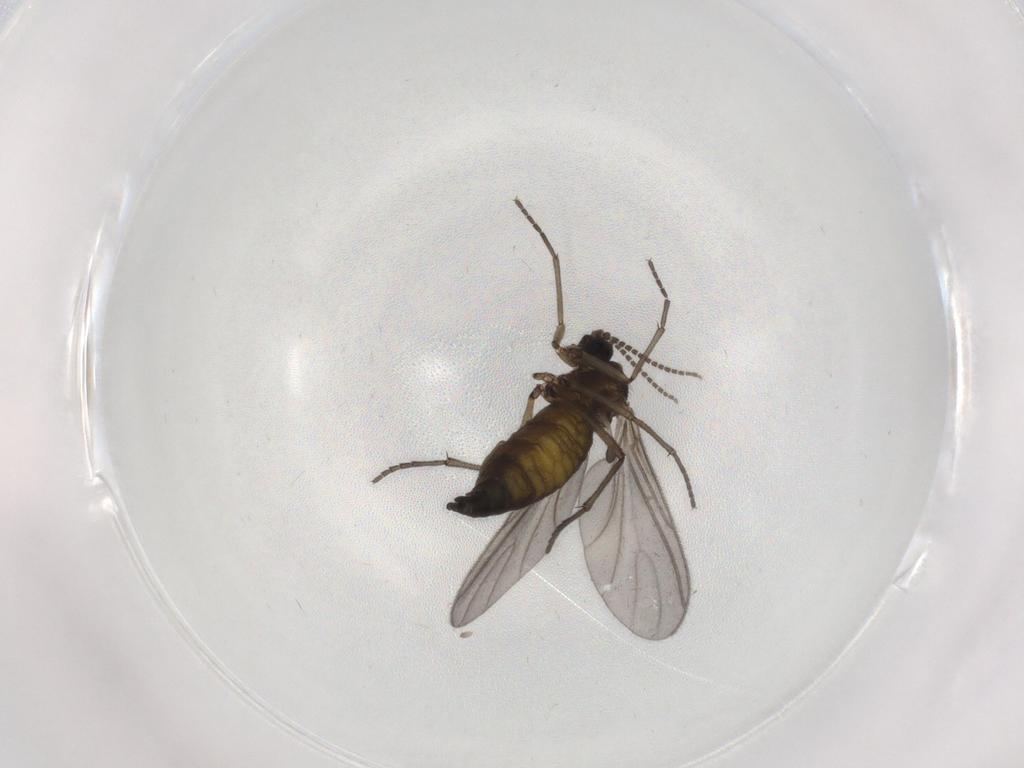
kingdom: Animalia
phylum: Arthropoda
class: Insecta
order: Diptera
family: Sciaridae
